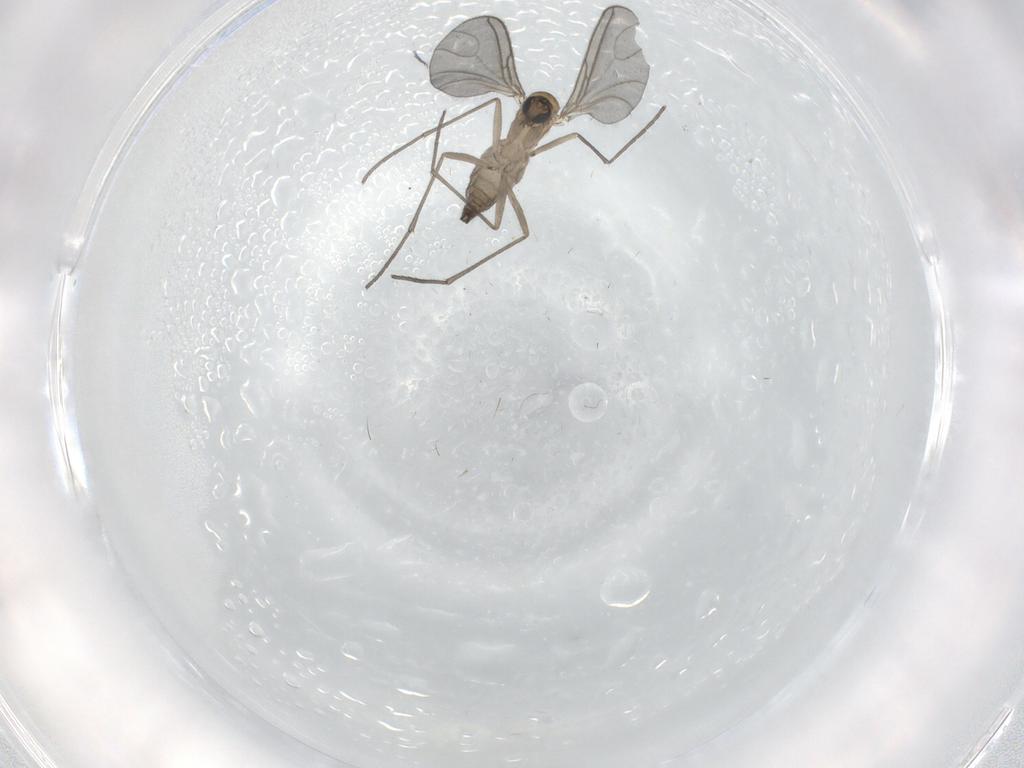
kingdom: Animalia
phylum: Arthropoda
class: Insecta
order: Diptera
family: Sciaridae
